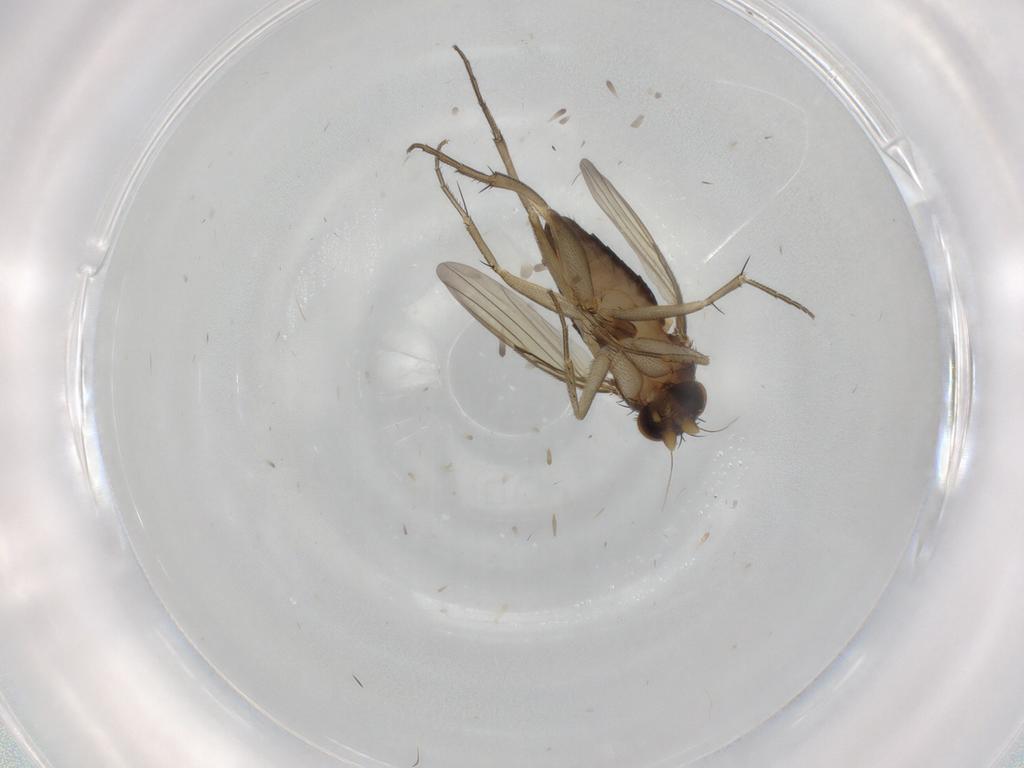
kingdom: Animalia
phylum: Arthropoda
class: Insecta
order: Diptera
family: Phoridae
